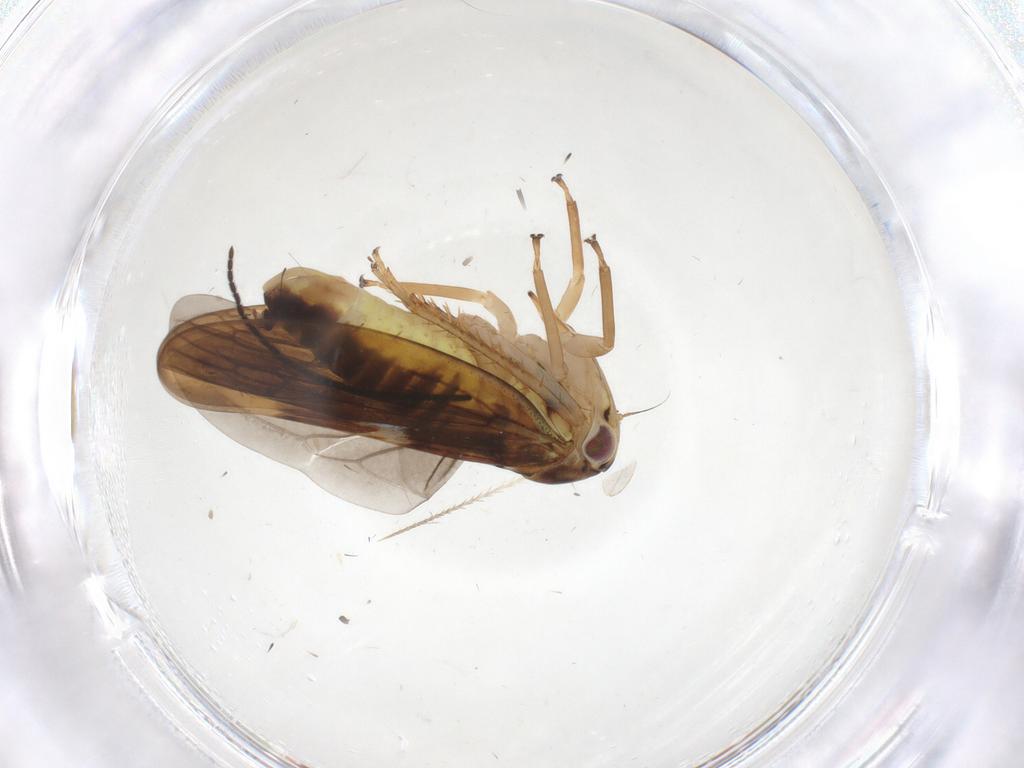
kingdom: Animalia
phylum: Arthropoda
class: Insecta
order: Hemiptera
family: Cicadellidae
